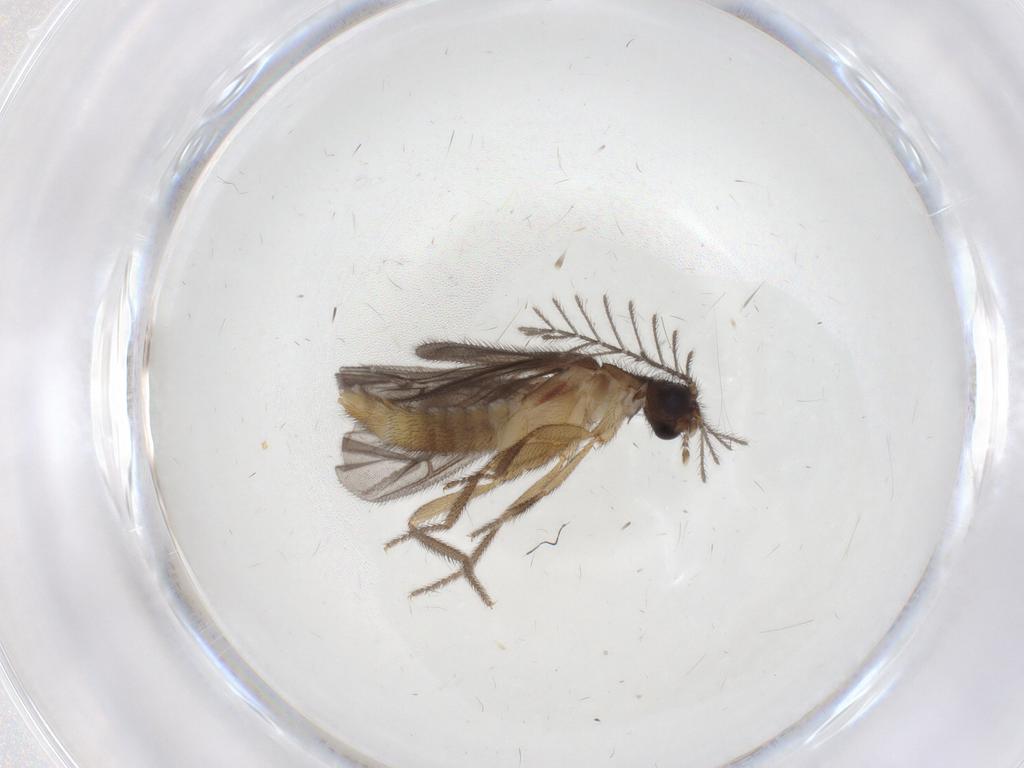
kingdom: Animalia
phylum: Arthropoda
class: Insecta
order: Coleoptera
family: Phengodidae
